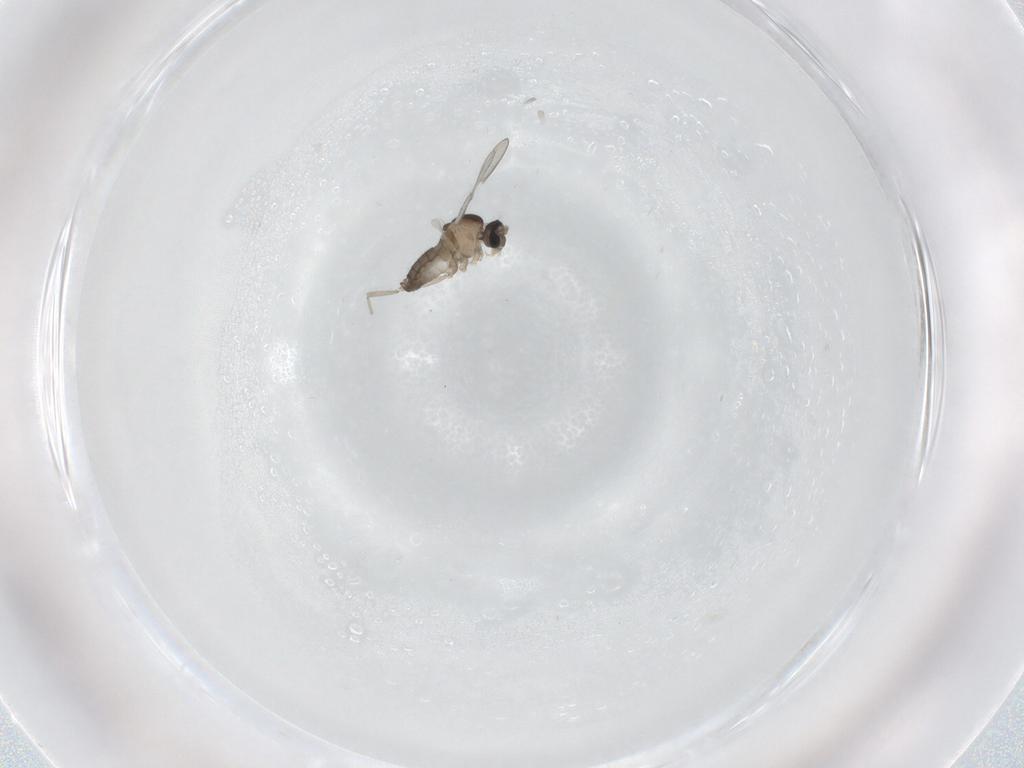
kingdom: Animalia
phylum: Arthropoda
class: Insecta
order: Diptera
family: Cecidomyiidae
